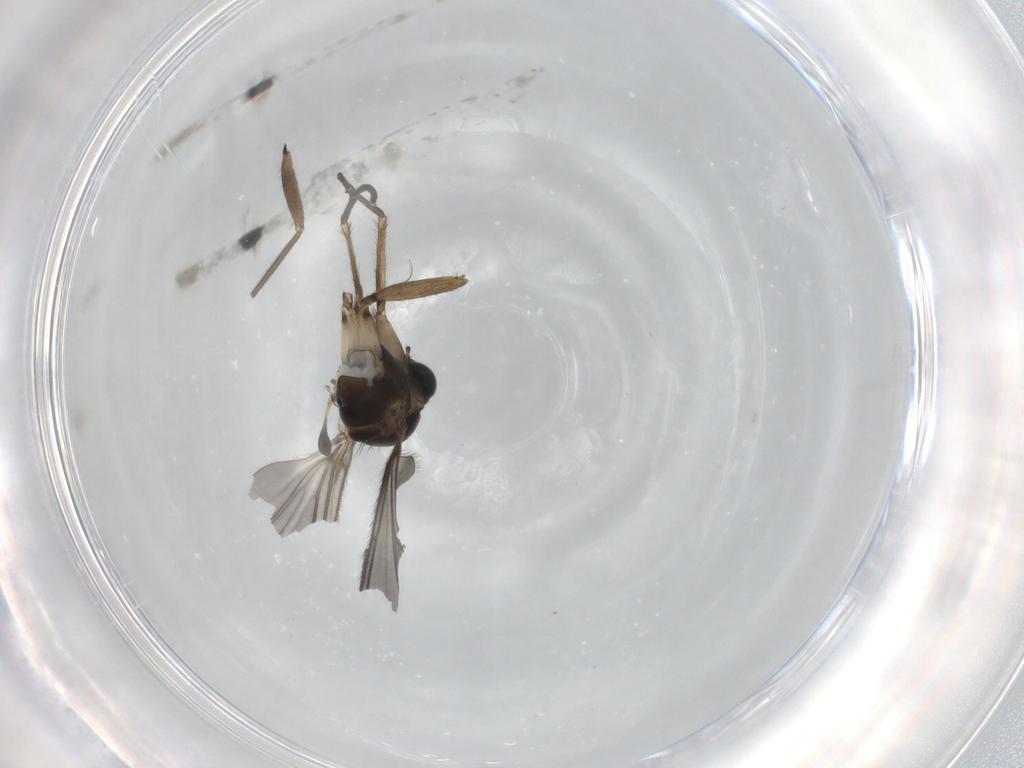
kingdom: Animalia
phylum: Arthropoda
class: Insecta
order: Diptera
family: Sciaridae
